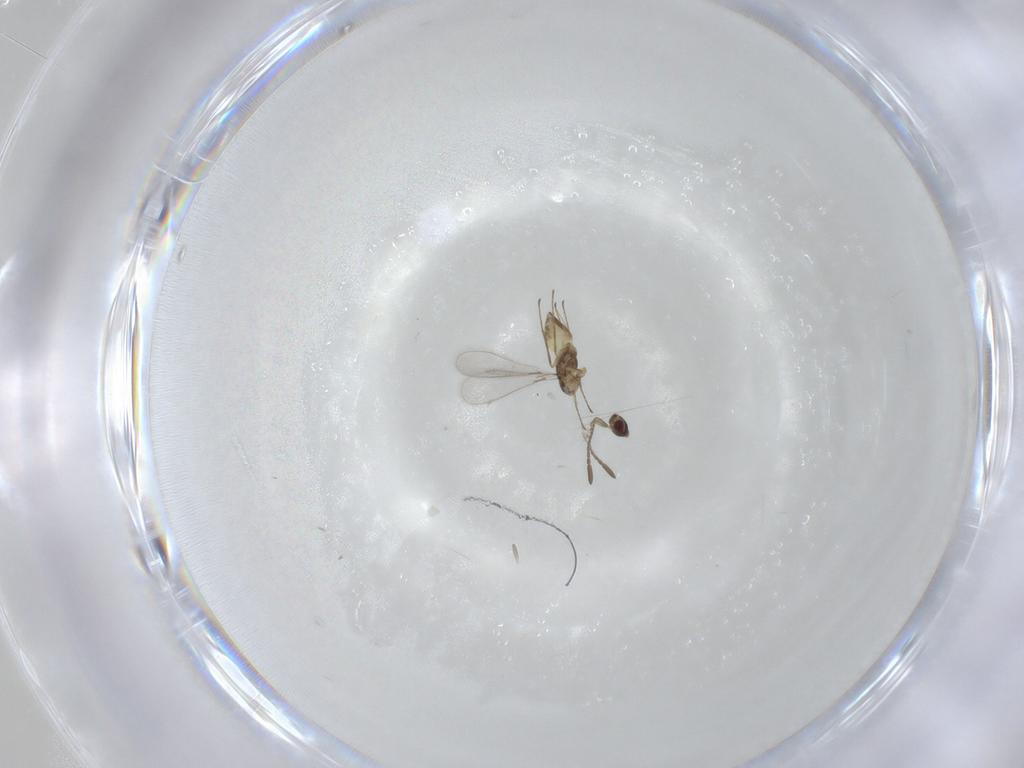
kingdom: Animalia
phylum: Arthropoda
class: Insecta
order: Hymenoptera
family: Mymaridae
